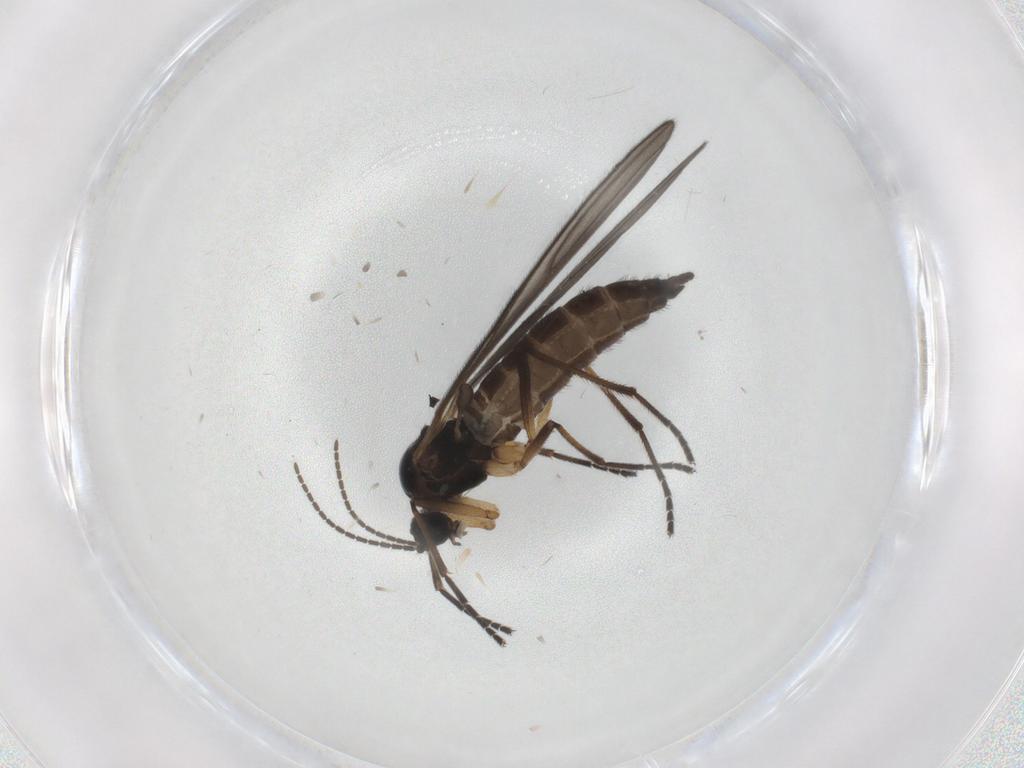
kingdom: Animalia
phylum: Arthropoda
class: Insecta
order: Diptera
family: Sciaridae
